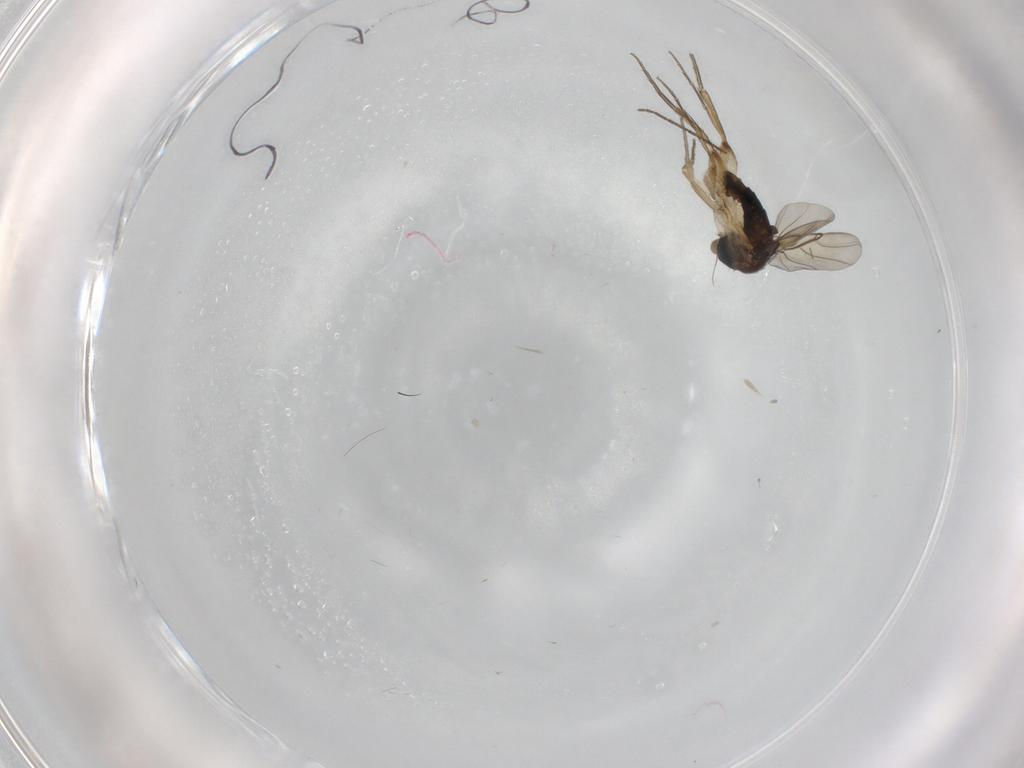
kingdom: Animalia
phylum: Arthropoda
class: Insecta
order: Diptera
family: Phoridae
